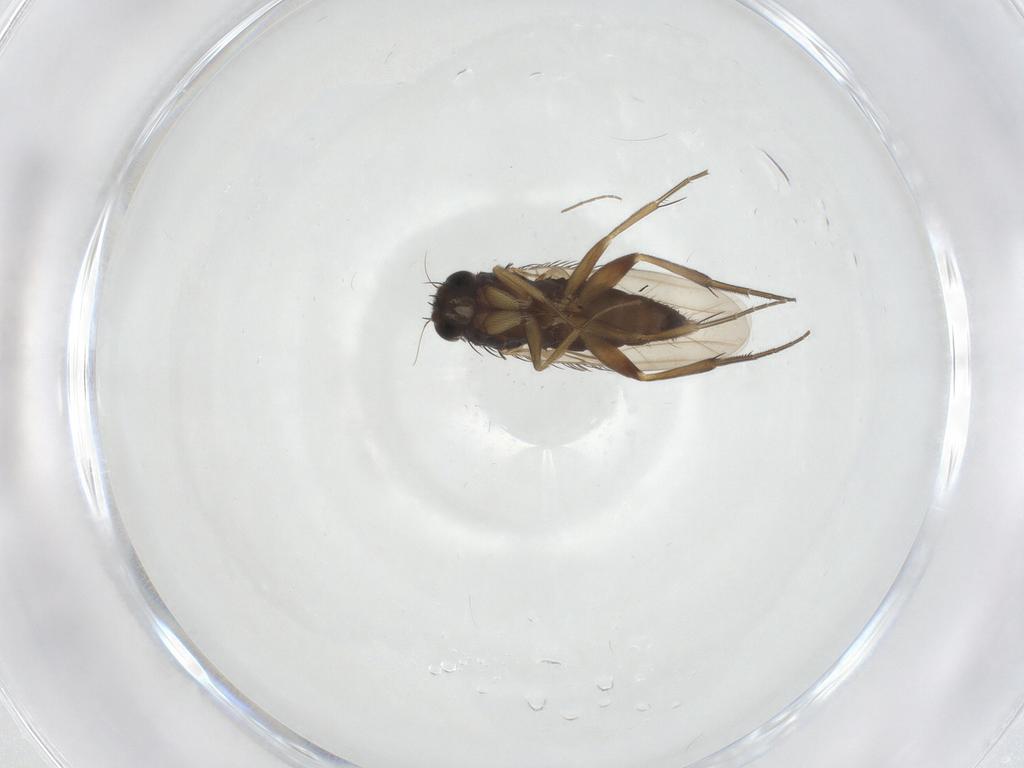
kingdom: Animalia
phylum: Arthropoda
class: Insecta
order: Diptera
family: Phoridae
